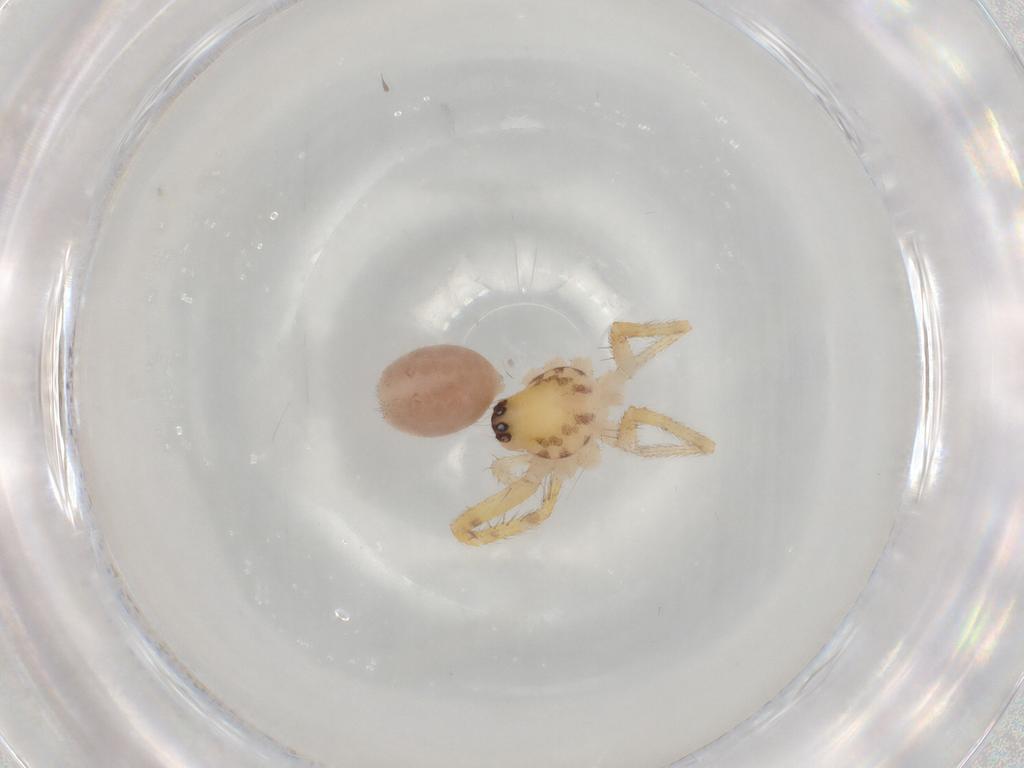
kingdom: Animalia
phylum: Arthropoda
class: Arachnida
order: Araneae
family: Corinnidae
